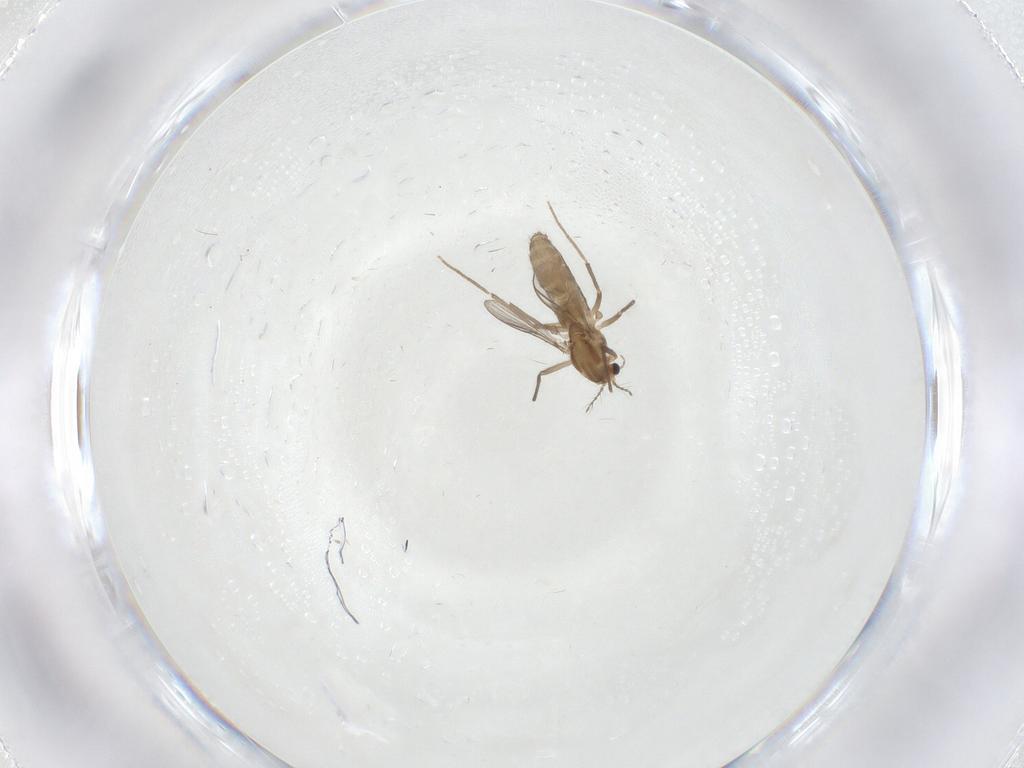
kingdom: Animalia
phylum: Arthropoda
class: Insecta
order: Diptera
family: Chironomidae
